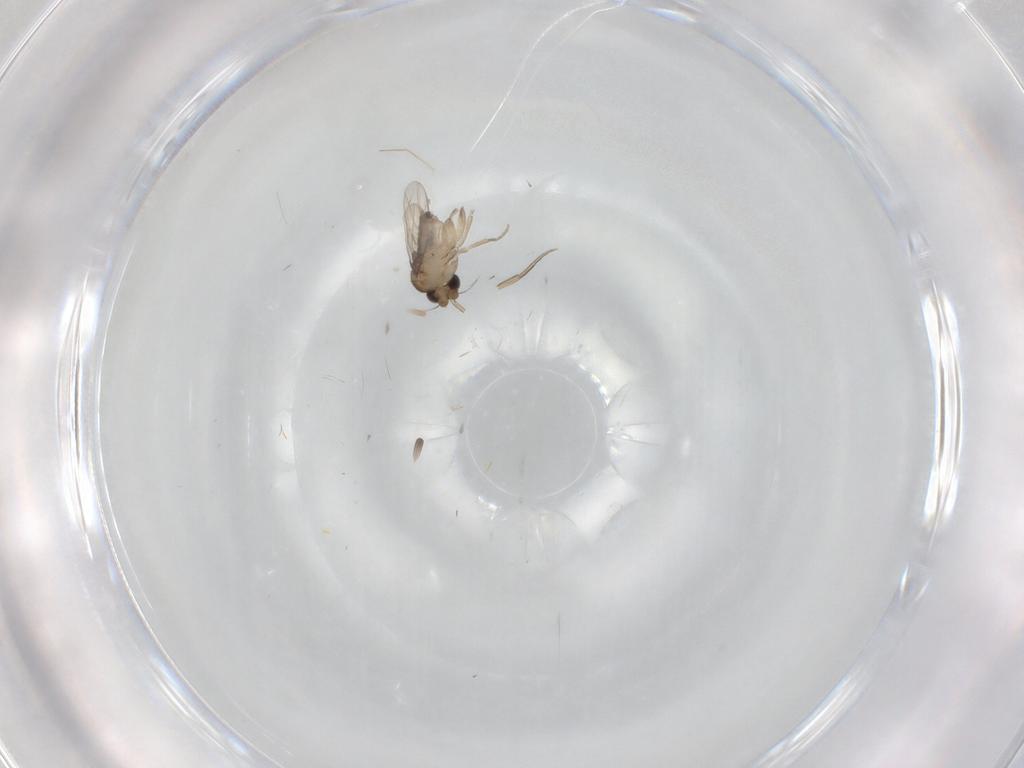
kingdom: Animalia
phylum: Arthropoda
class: Insecta
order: Diptera
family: Phoridae
